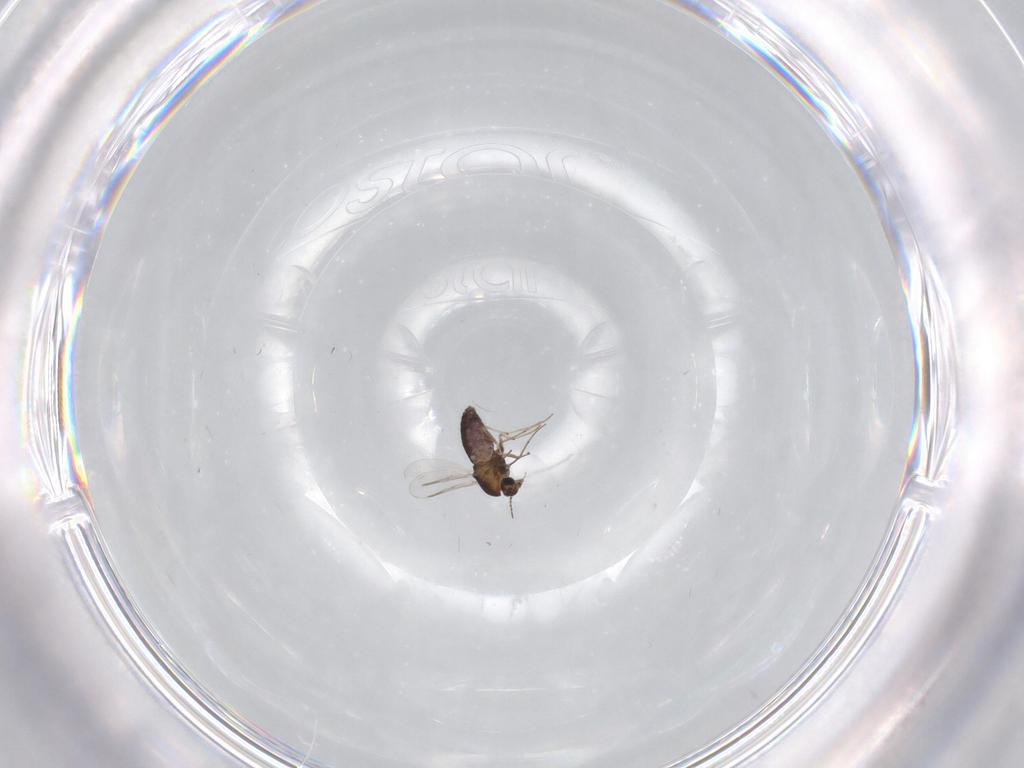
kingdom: Animalia
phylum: Arthropoda
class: Insecta
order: Diptera
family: Chironomidae
